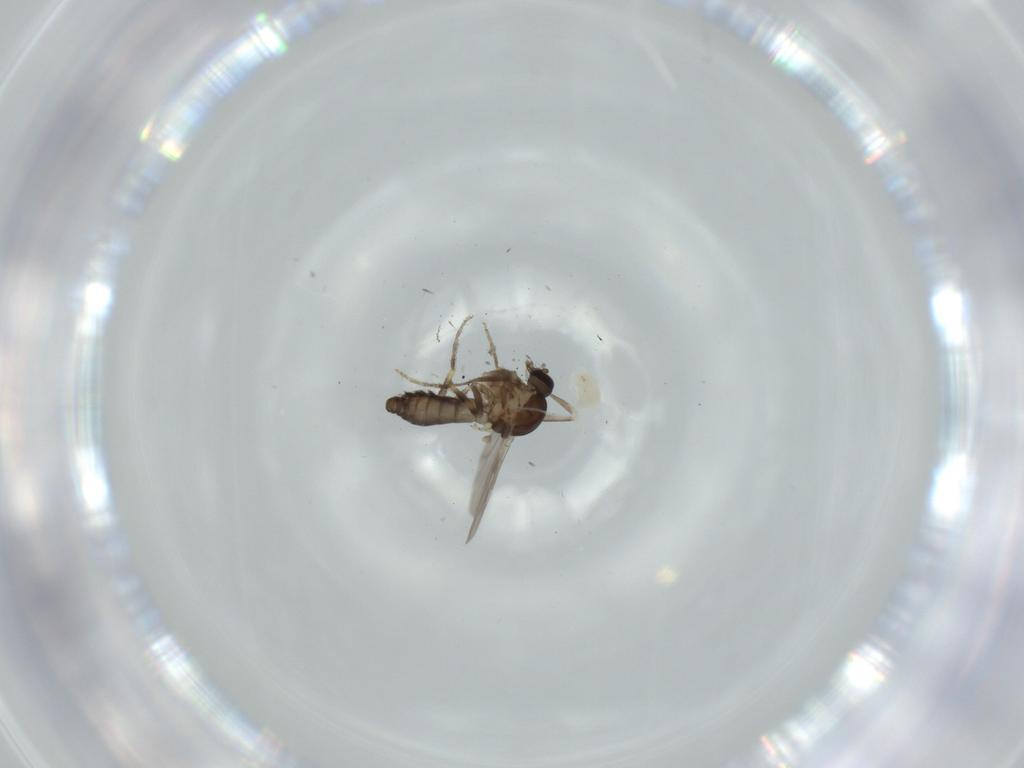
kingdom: Animalia
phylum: Arthropoda
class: Insecta
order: Diptera
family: Ceratopogonidae
